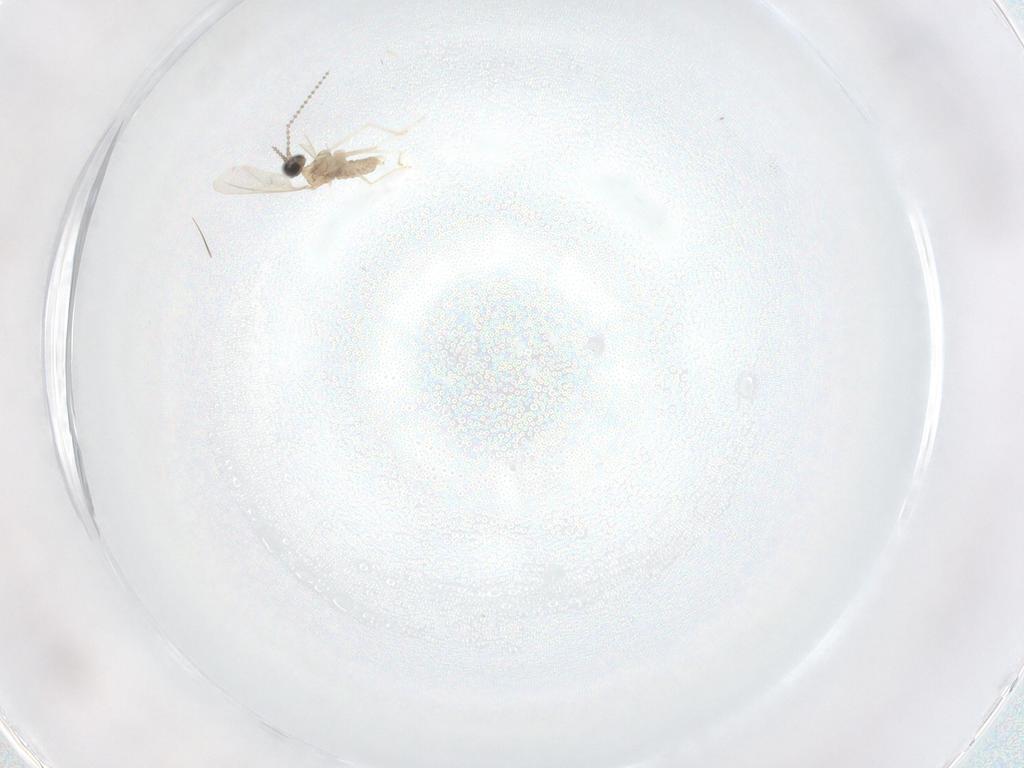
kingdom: Animalia
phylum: Arthropoda
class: Insecta
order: Diptera
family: Cecidomyiidae
